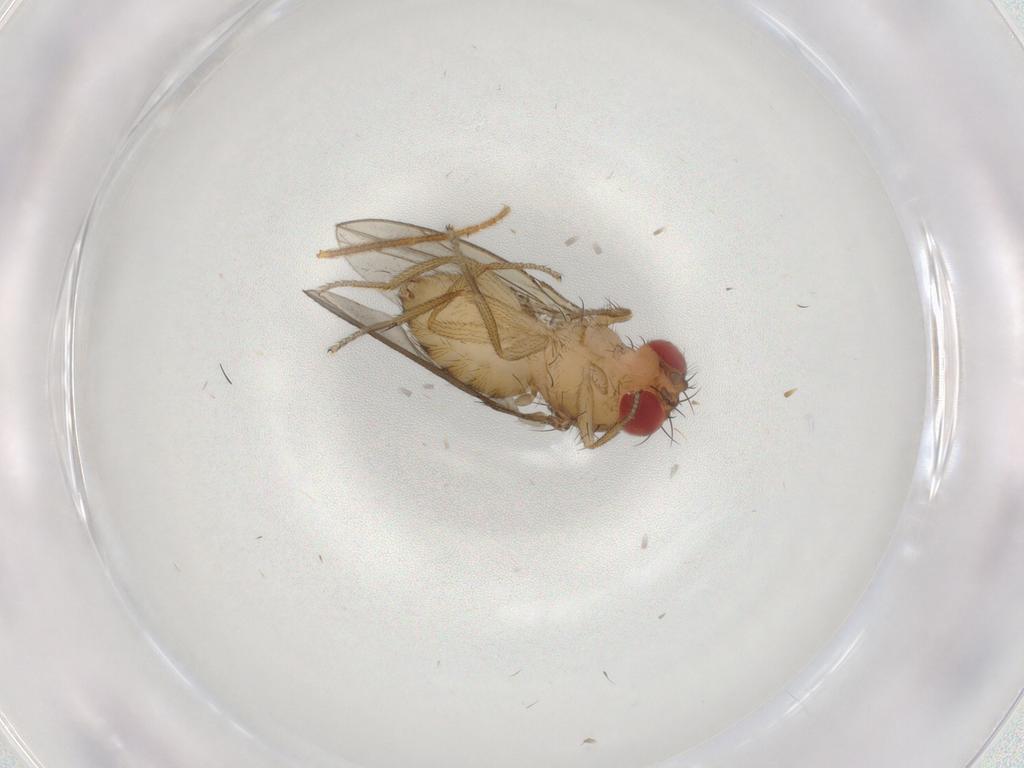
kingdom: Animalia
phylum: Arthropoda
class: Insecta
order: Diptera
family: Drosophilidae
